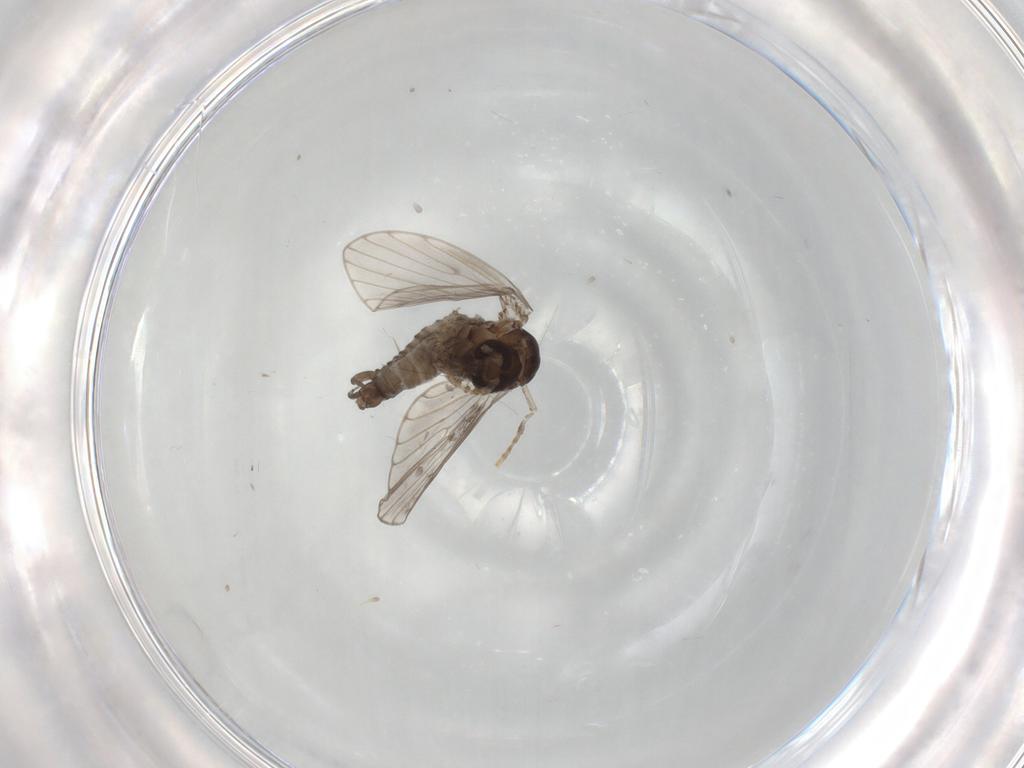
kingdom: Animalia
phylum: Arthropoda
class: Insecta
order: Diptera
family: Psychodidae
